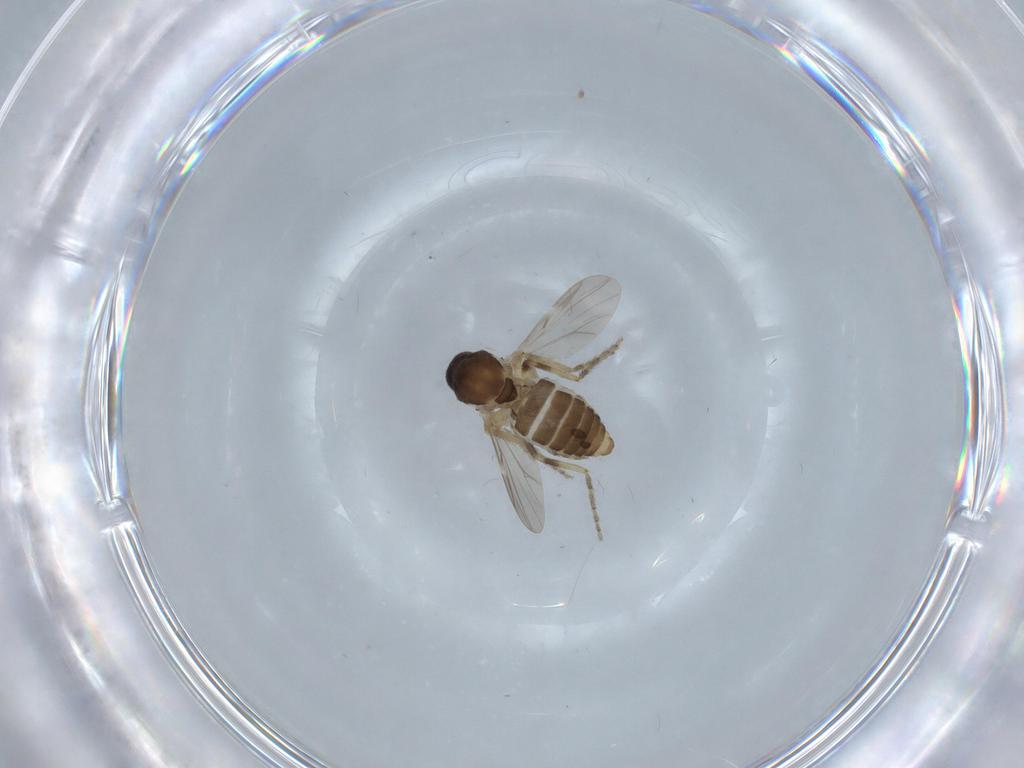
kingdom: Animalia
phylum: Arthropoda
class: Insecta
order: Diptera
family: Ceratopogonidae
